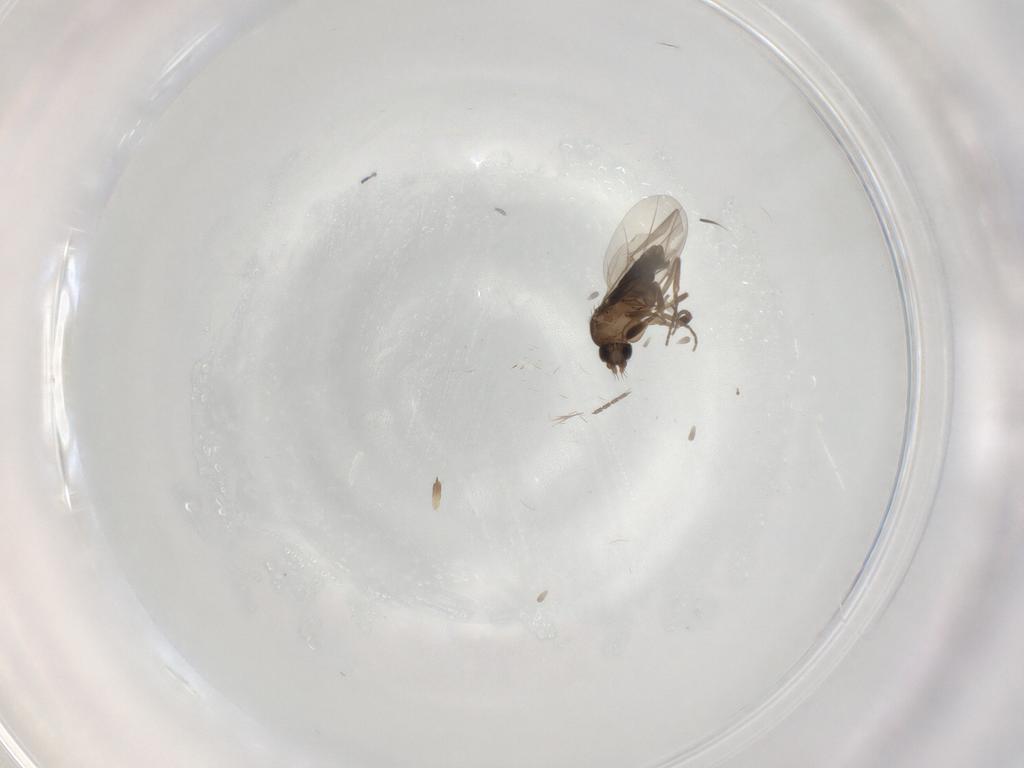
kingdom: Animalia
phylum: Arthropoda
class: Insecta
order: Diptera
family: Phoridae
